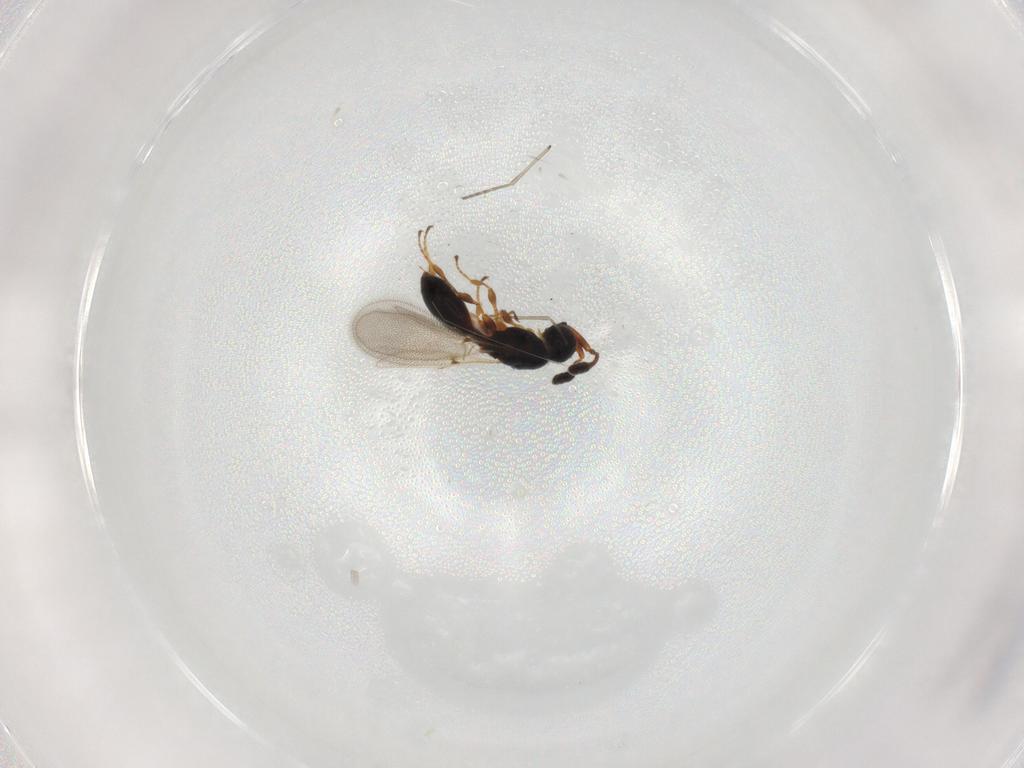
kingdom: Animalia
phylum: Arthropoda
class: Insecta
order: Hymenoptera
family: Diapriidae
